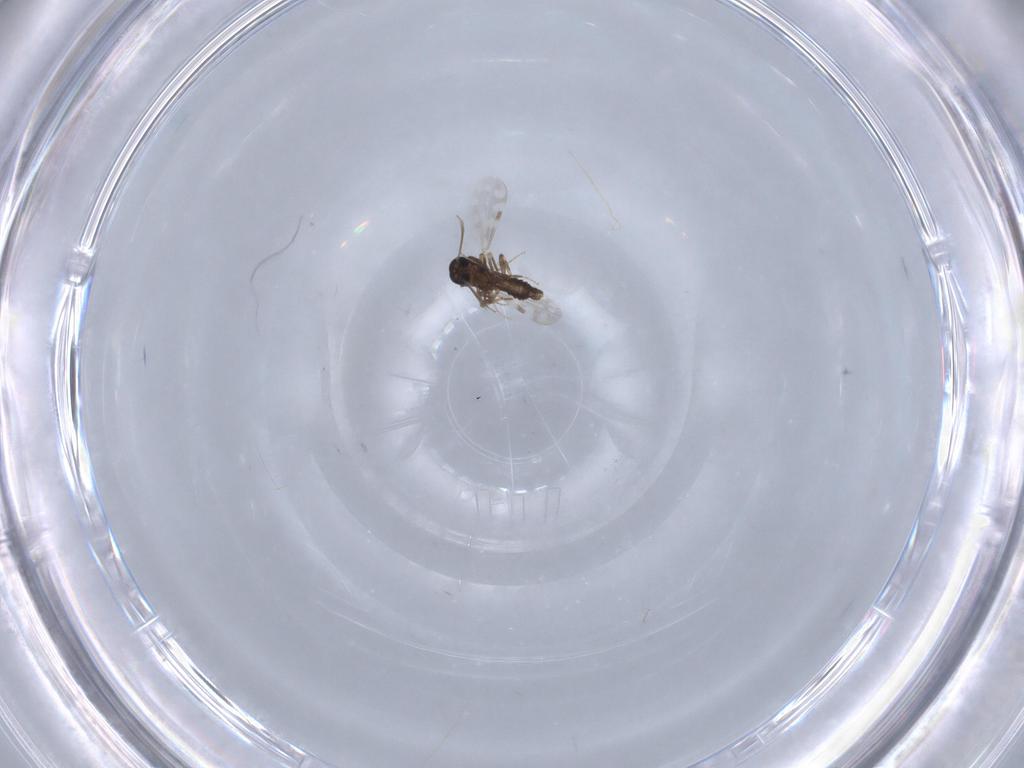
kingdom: Animalia
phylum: Arthropoda
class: Insecta
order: Diptera
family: Ceratopogonidae
